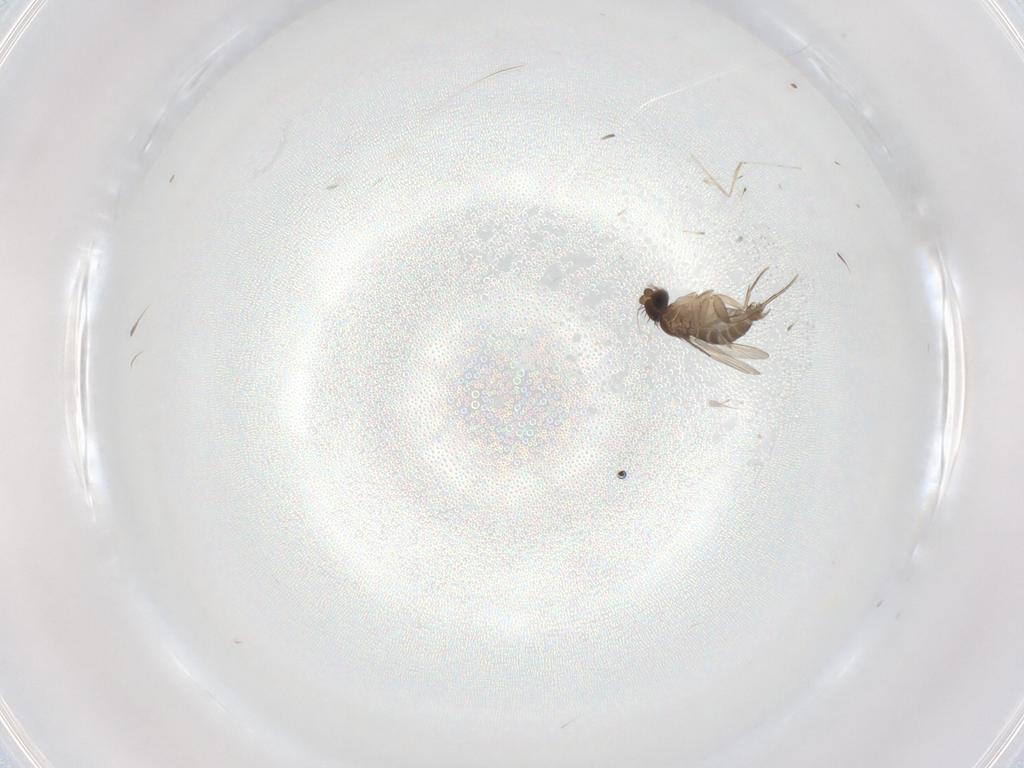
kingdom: Animalia
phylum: Arthropoda
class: Insecta
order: Diptera
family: Phoridae
